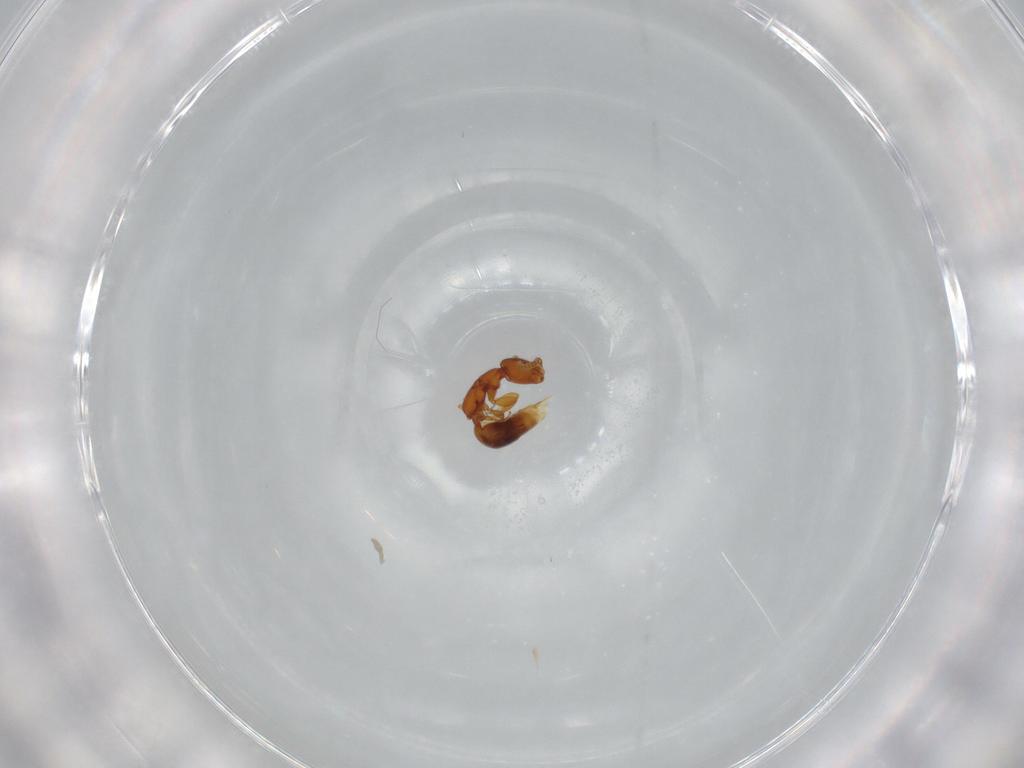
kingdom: Animalia
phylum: Arthropoda
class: Insecta
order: Hymenoptera
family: Bethylidae
